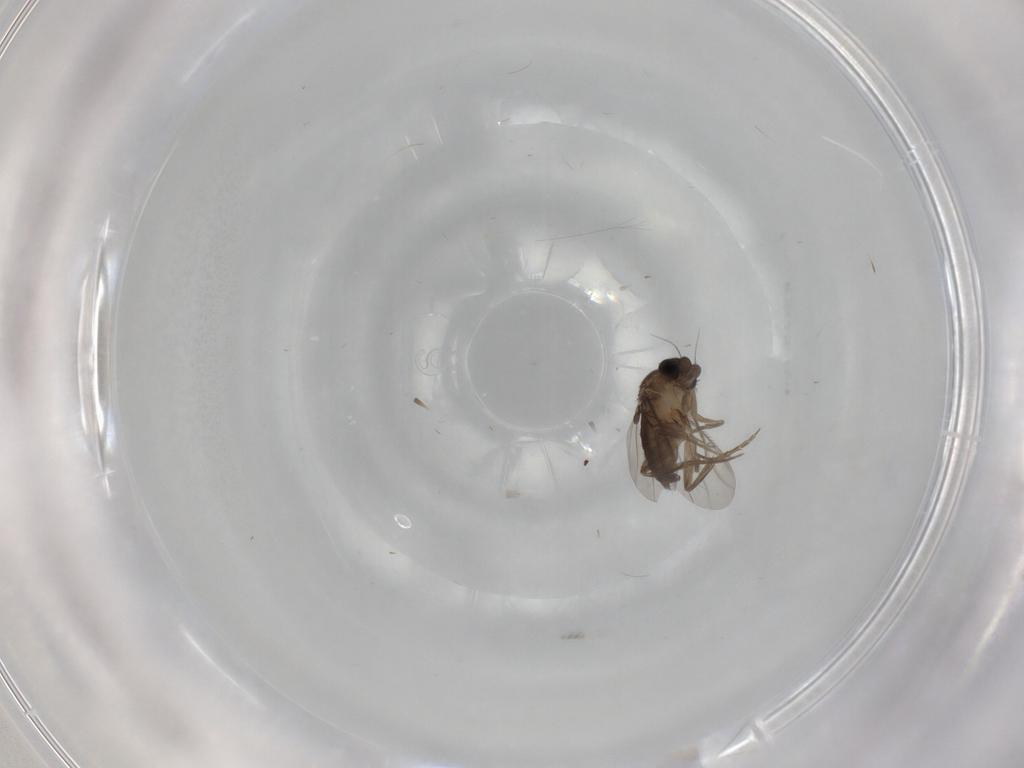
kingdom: Animalia
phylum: Arthropoda
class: Insecta
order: Diptera
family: Phoridae
